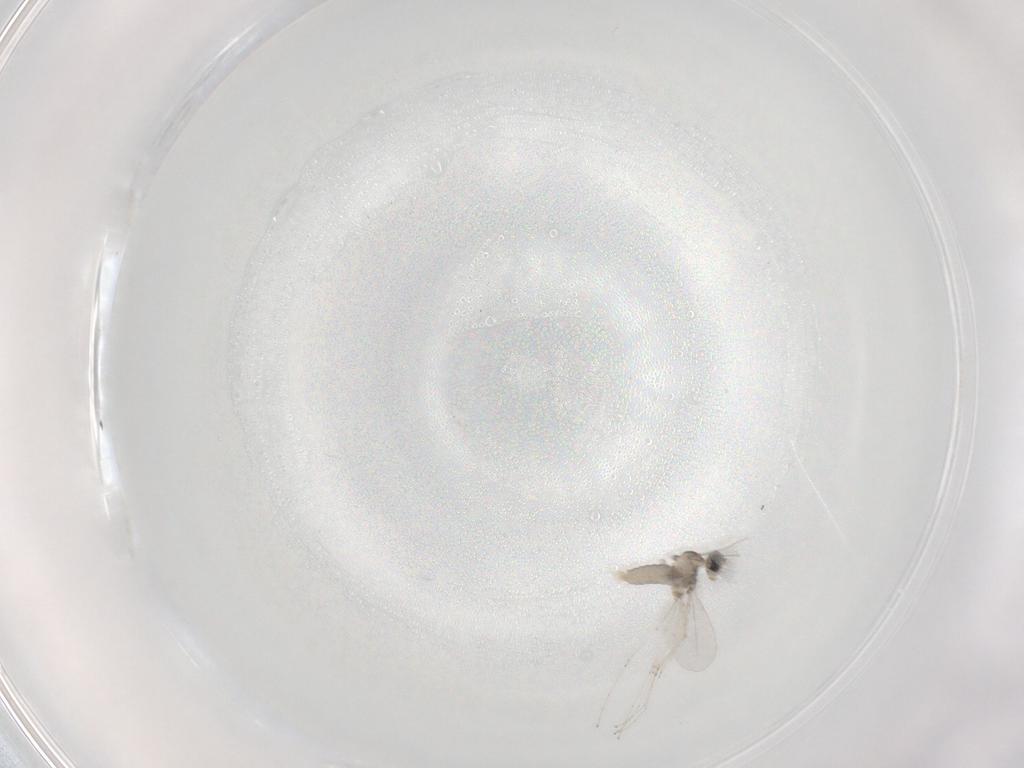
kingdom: Animalia
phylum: Arthropoda
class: Insecta
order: Diptera
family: Cecidomyiidae
